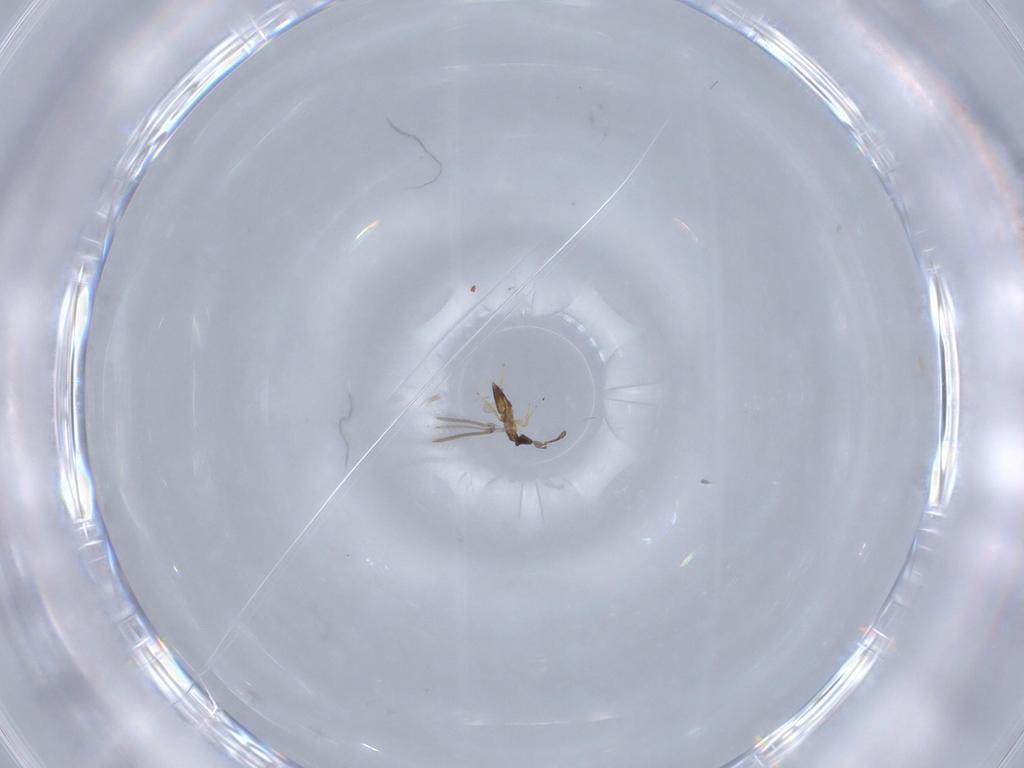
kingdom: Animalia
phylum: Arthropoda
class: Insecta
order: Hymenoptera
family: Mymaridae
